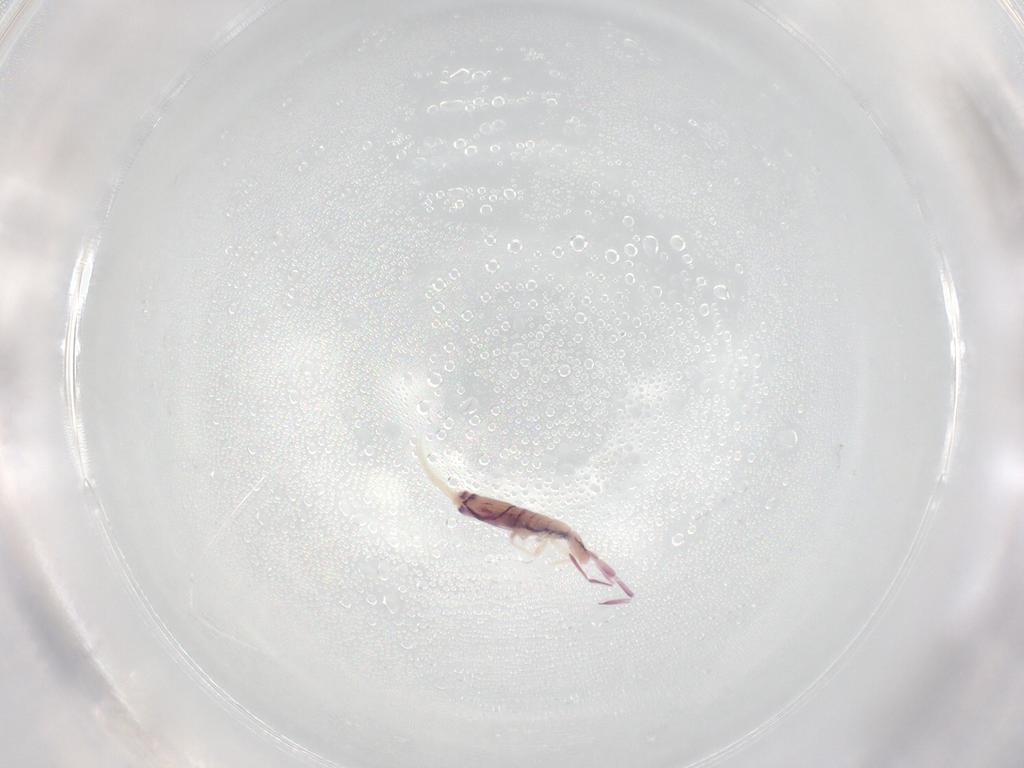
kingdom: Animalia
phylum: Arthropoda
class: Collembola
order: Entomobryomorpha
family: Entomobryidae
